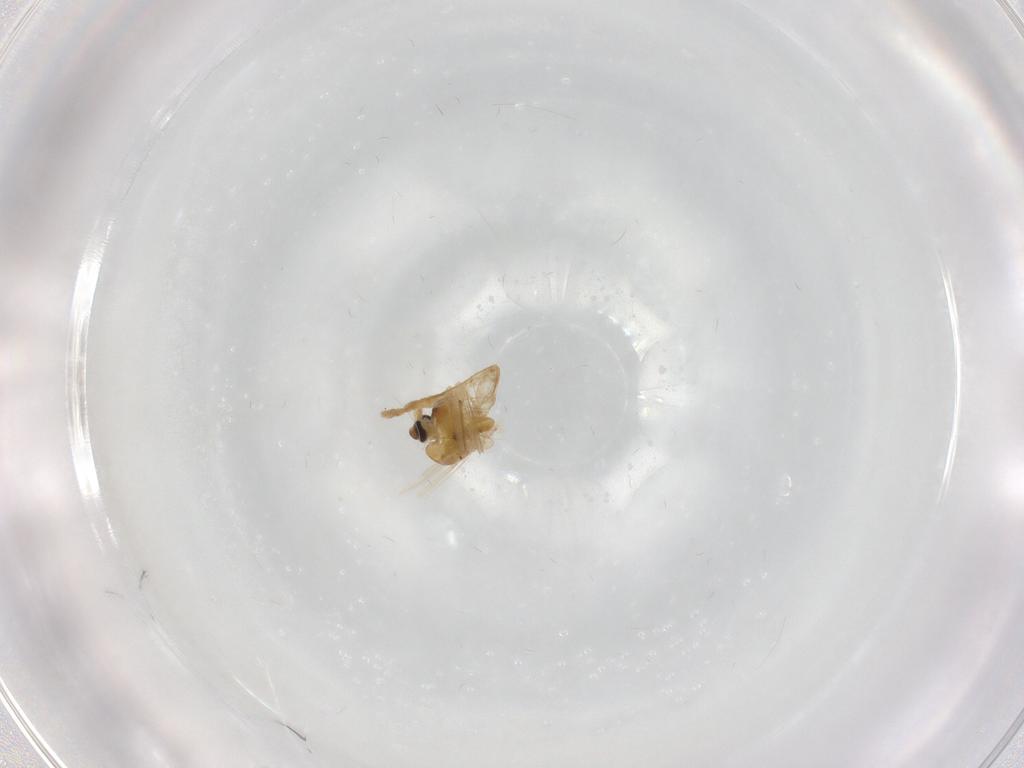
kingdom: Animalia
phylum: Arthropoda
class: Insecta
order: Diptera
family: Chironomidae
